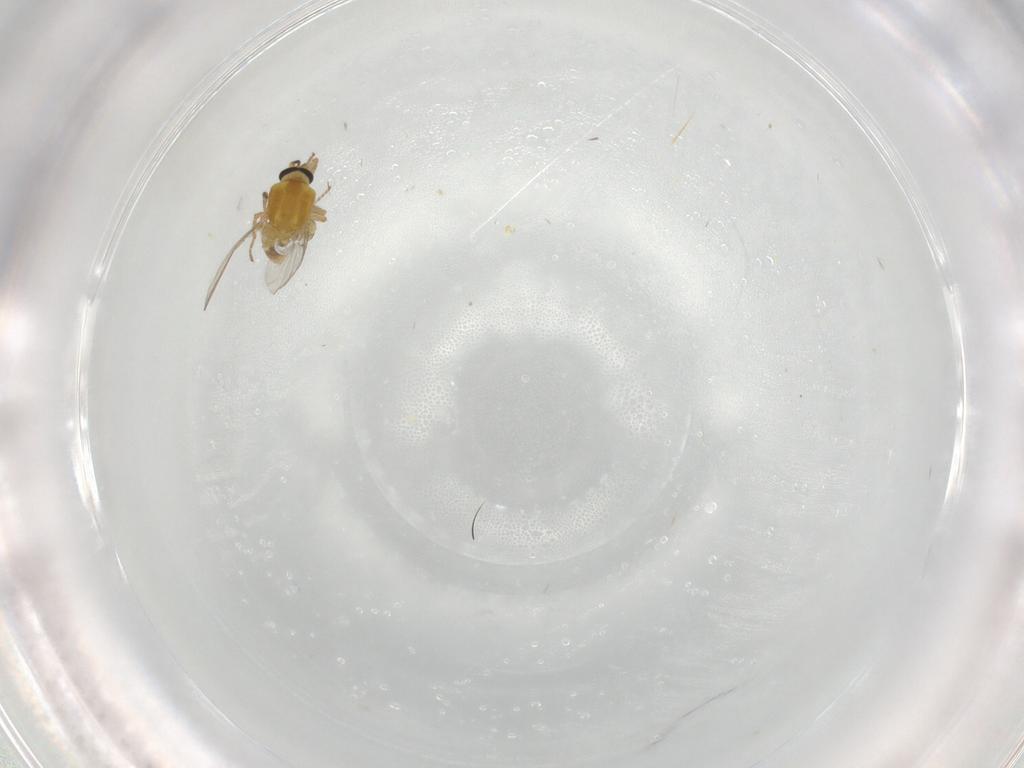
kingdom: Animalia
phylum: Arthropoda
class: Insecta
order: Diptera
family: Ceratopogonidae
